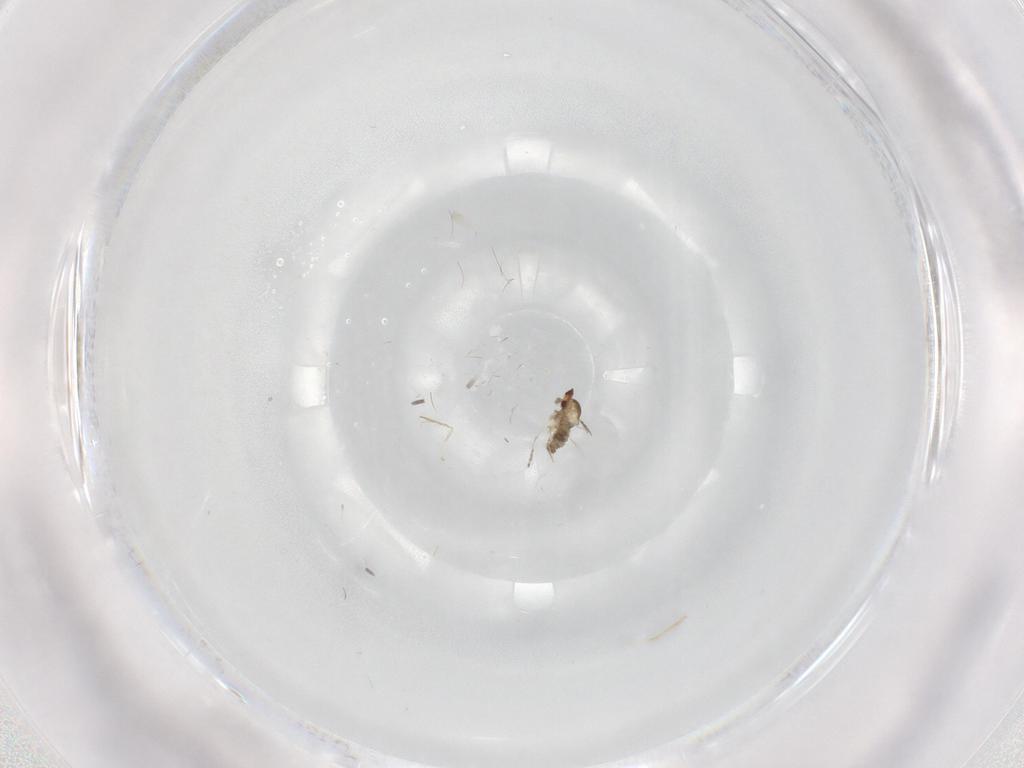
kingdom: Animalia
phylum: Arthropoda
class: Insecta
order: Diptera
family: Cecidomyiidae
